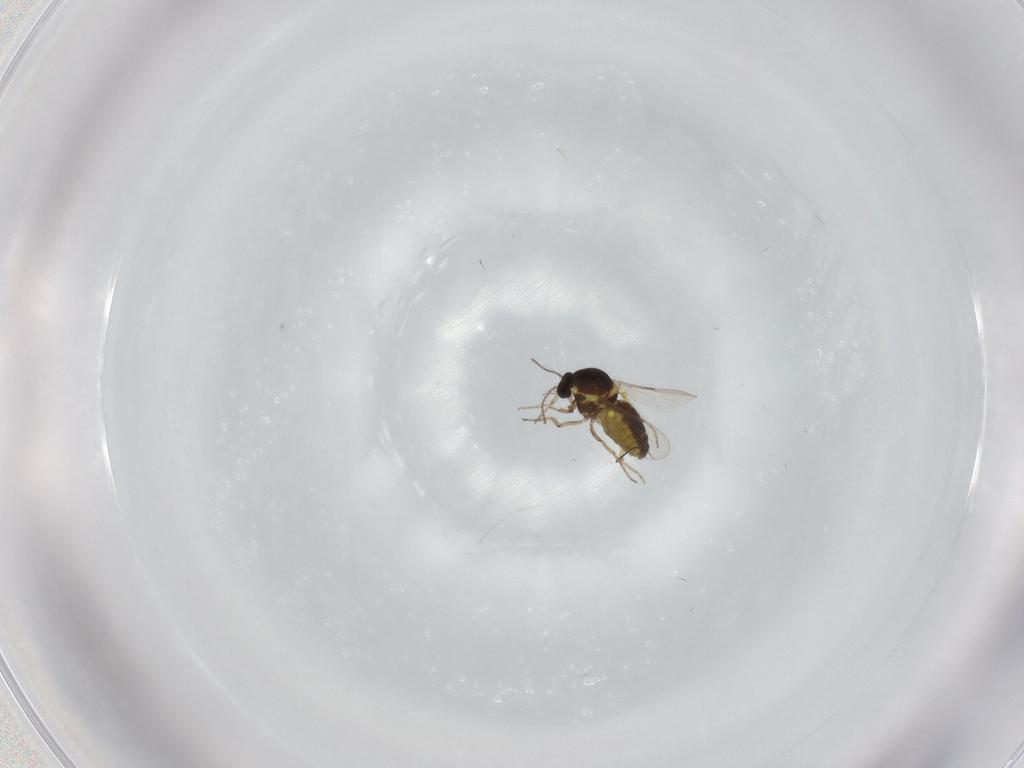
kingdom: Animalia
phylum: Arthropoda
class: Insecta
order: Diptera
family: Ceratopogonidae
